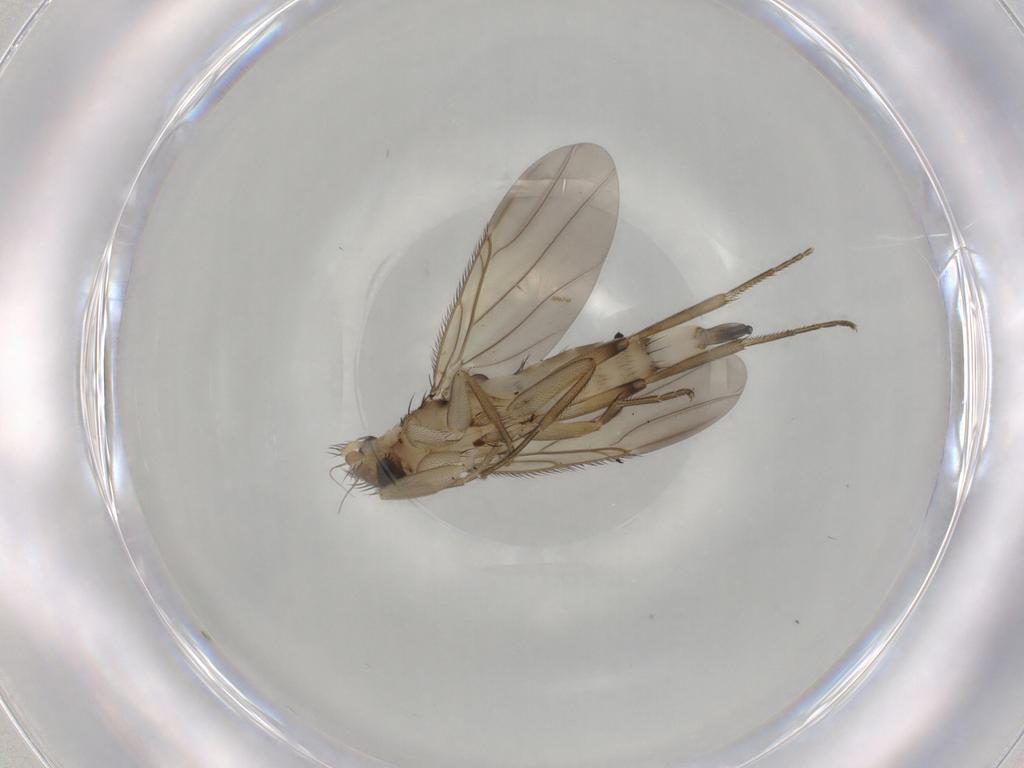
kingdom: Animalia
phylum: Arthropoda
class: Insecta
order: Diptera
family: Phoridae
